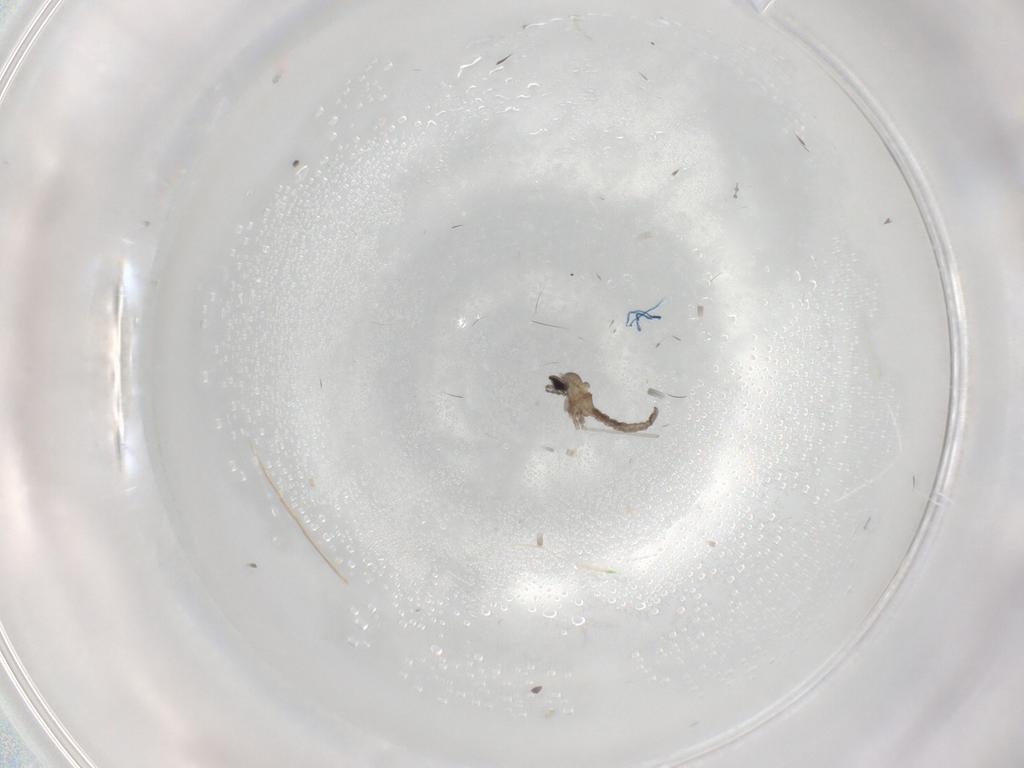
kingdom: Animalia
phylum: Arthropoda
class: Insecta
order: Diptera
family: Cecidomyiidae
